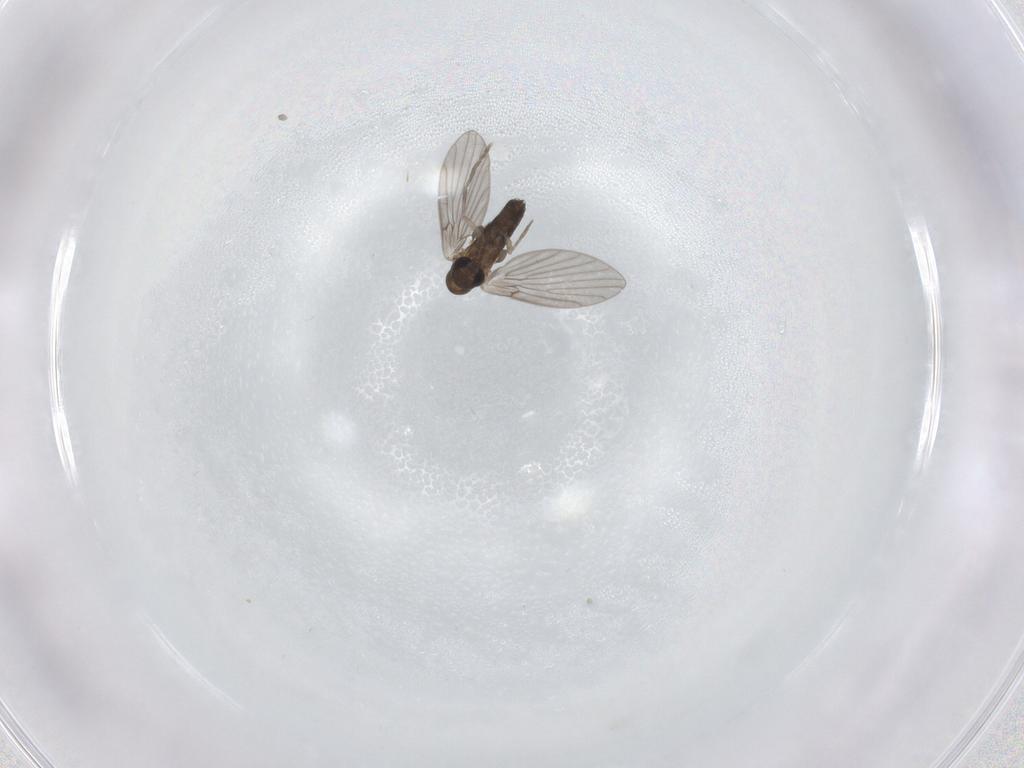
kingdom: Animalia
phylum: Arthropoda
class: Insecta
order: Diptera
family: Psychodidae
